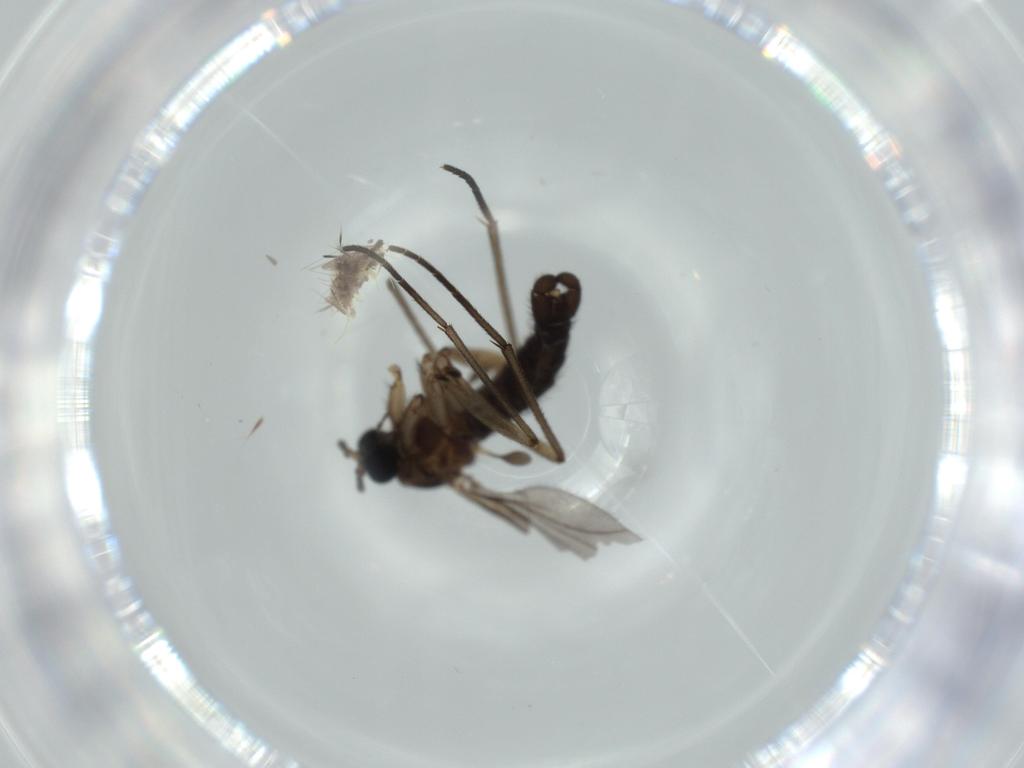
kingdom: Animalia
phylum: Arthropoda
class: Insecta
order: Diptera
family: Sciaridae
